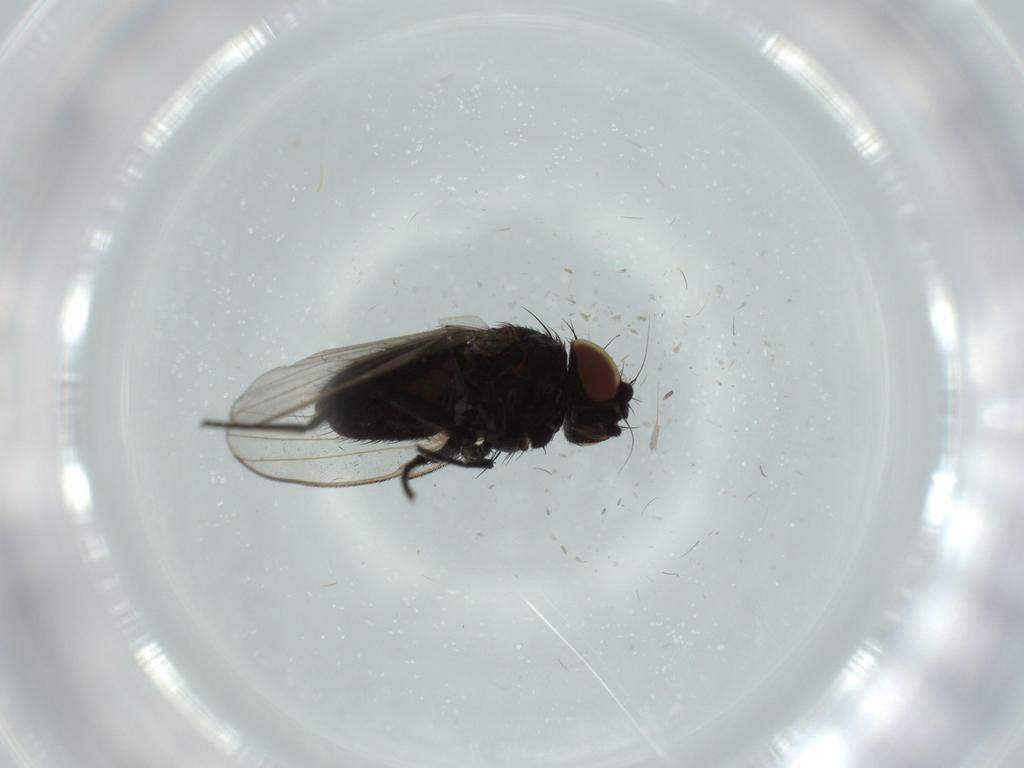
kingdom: Animalia
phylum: Arthropoda
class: Insecta
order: Diptera
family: Milichiidae
